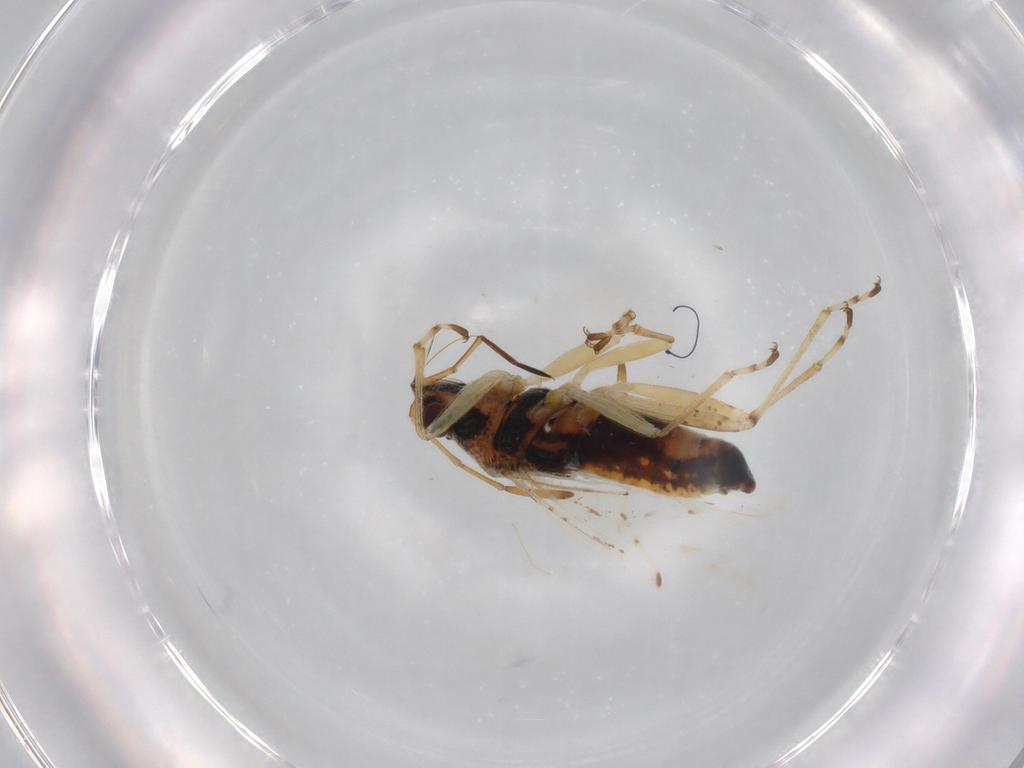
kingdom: Animalia
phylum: Arthropoda
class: Insecta
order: Hemiptera
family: Lygaeidae
